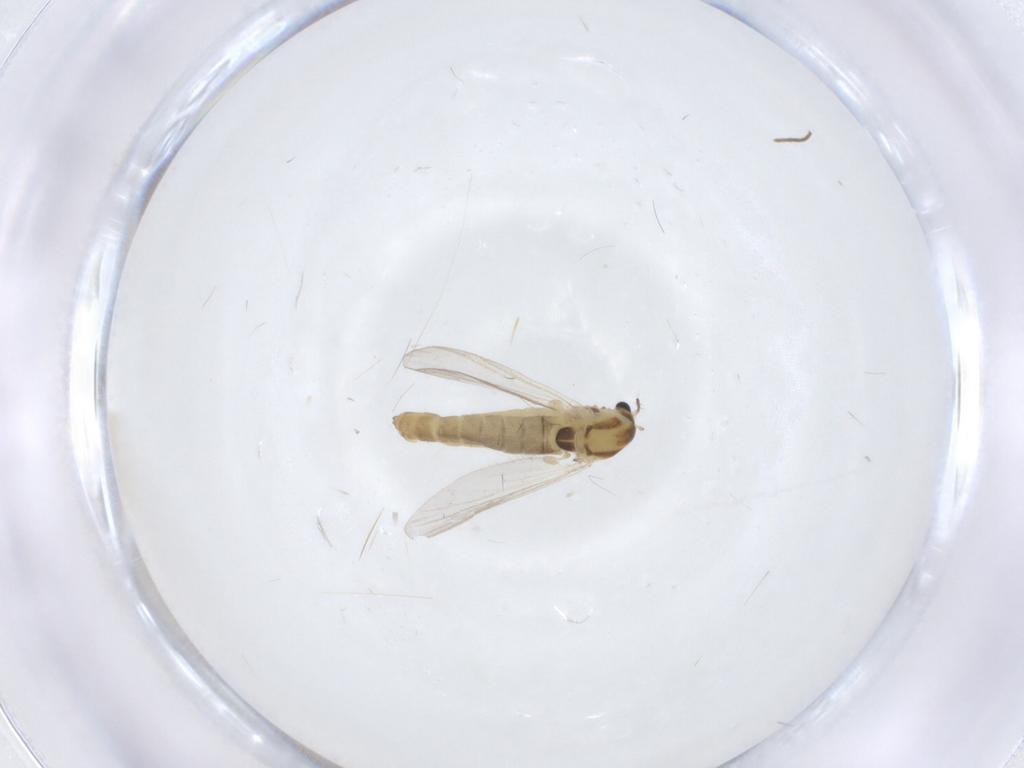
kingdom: Animalia
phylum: Arthropoda
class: Insecta
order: Diptera
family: Chironomidae
